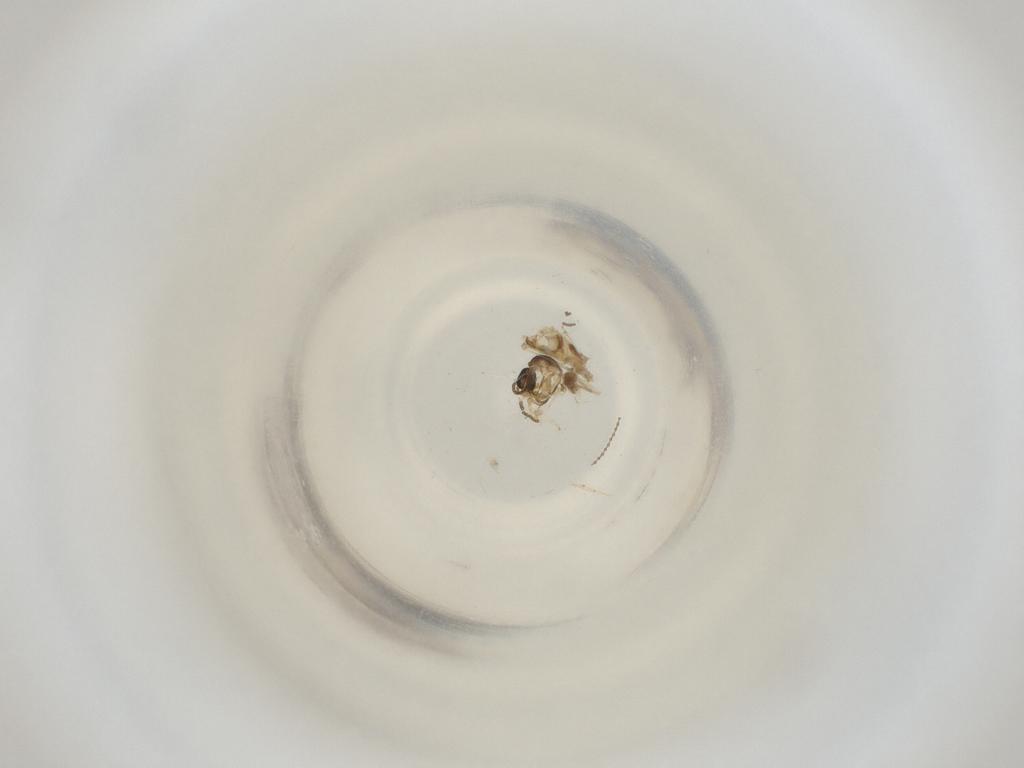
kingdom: Animalia
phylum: Arthropoda
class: Insecta
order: Diptera
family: Cecidomyiidae
